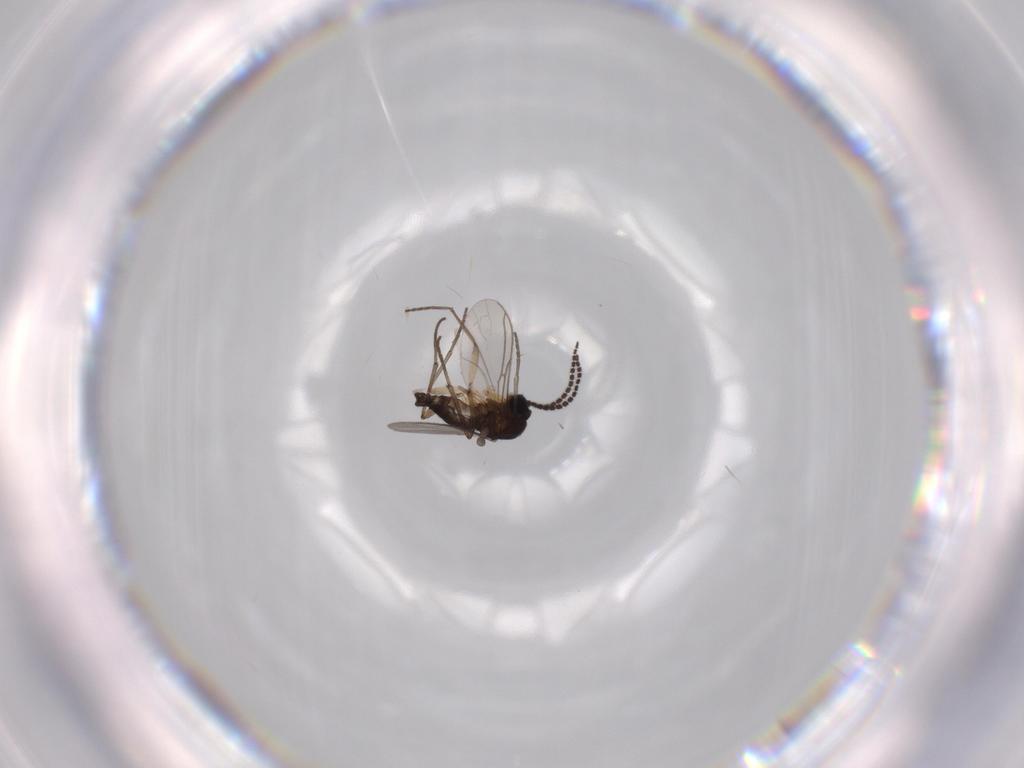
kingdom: Animalia
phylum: Arthropoda
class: Insecta
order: Diptera
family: Sciaridae
